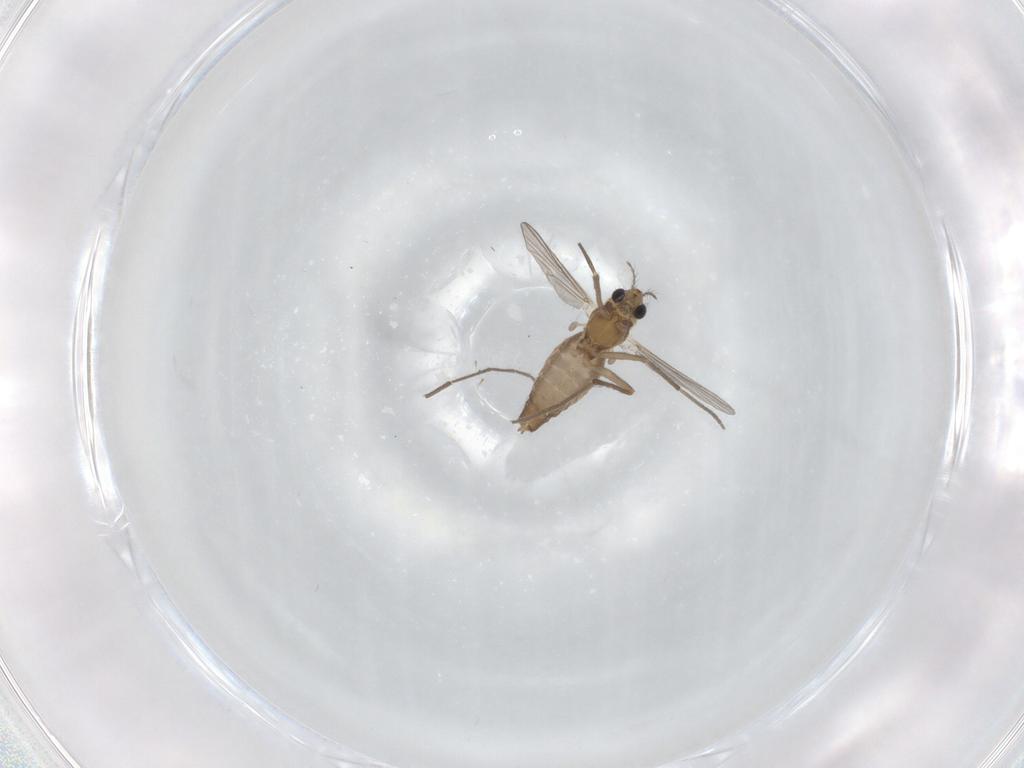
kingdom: Animalia
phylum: Arthropoda
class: Insecta
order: Diptera
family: Chironomidae
